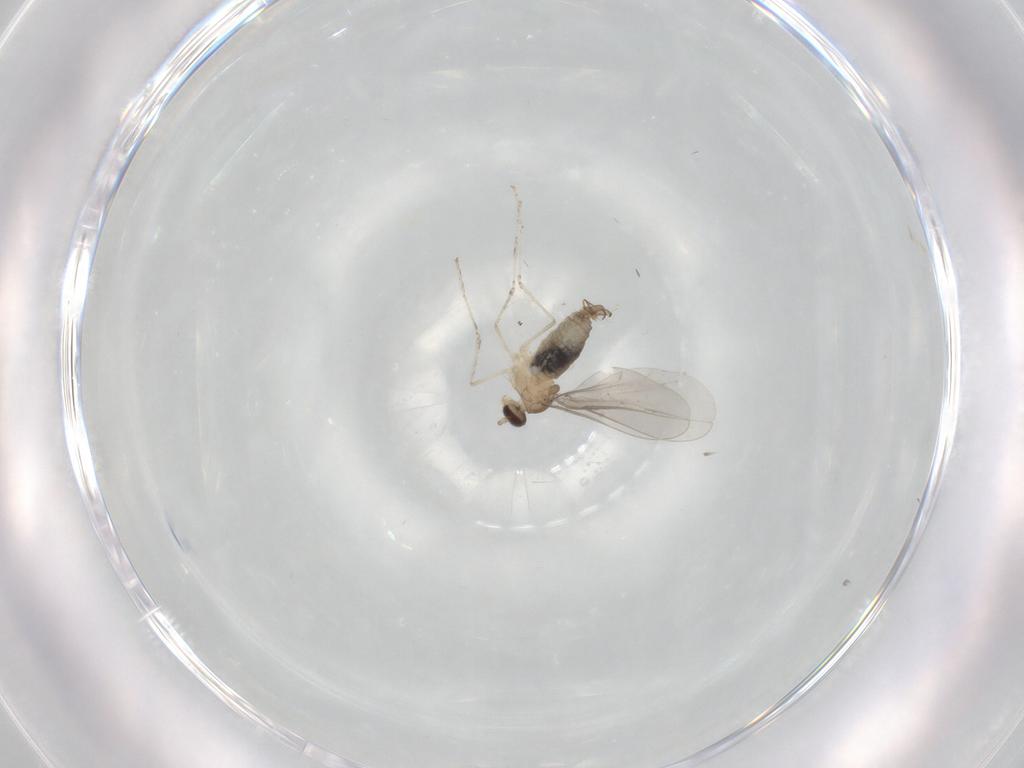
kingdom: Animalia
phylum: Arthropoda
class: Insecta
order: Diptera
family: Cecidomyiidae
